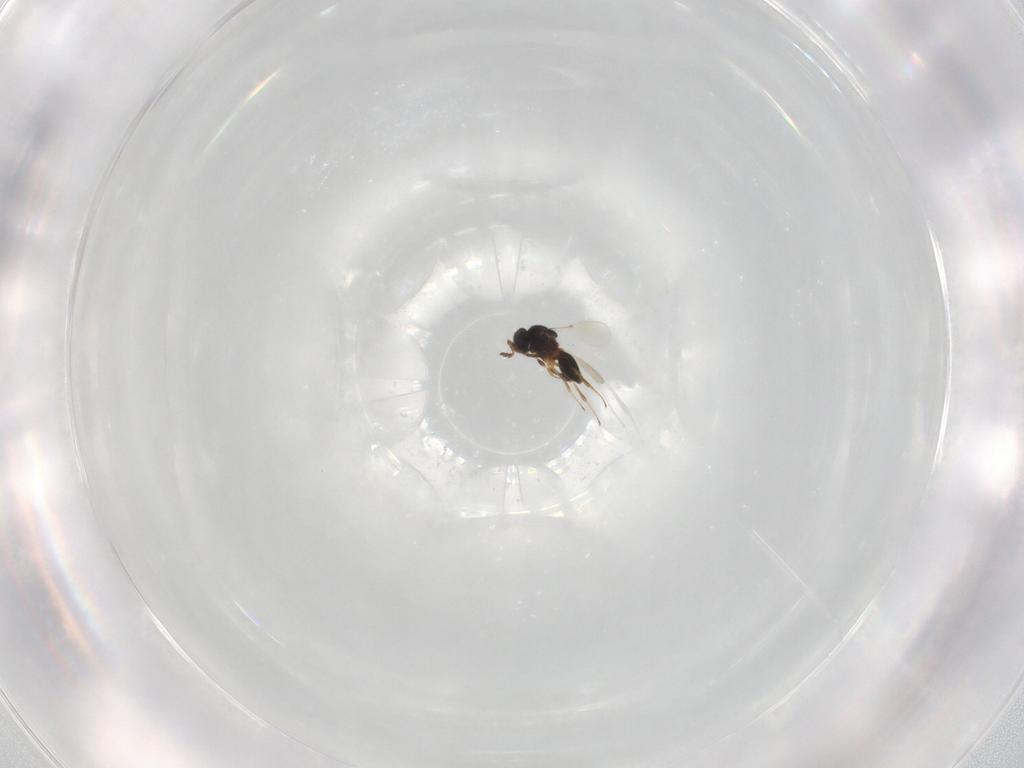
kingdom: Animalia
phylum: Arthropoda
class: Insecta
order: Hymenoptera
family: Platygastridae
